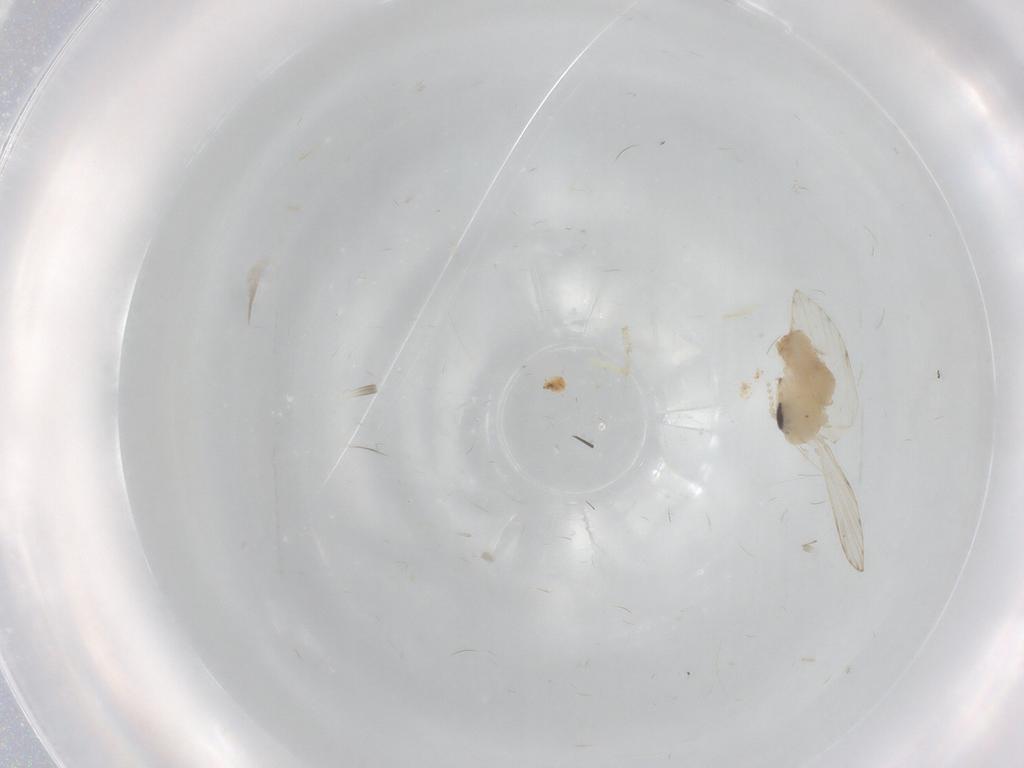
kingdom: Animalia
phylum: Arthropoda
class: Insecta
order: Diptera
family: Psychodidae
